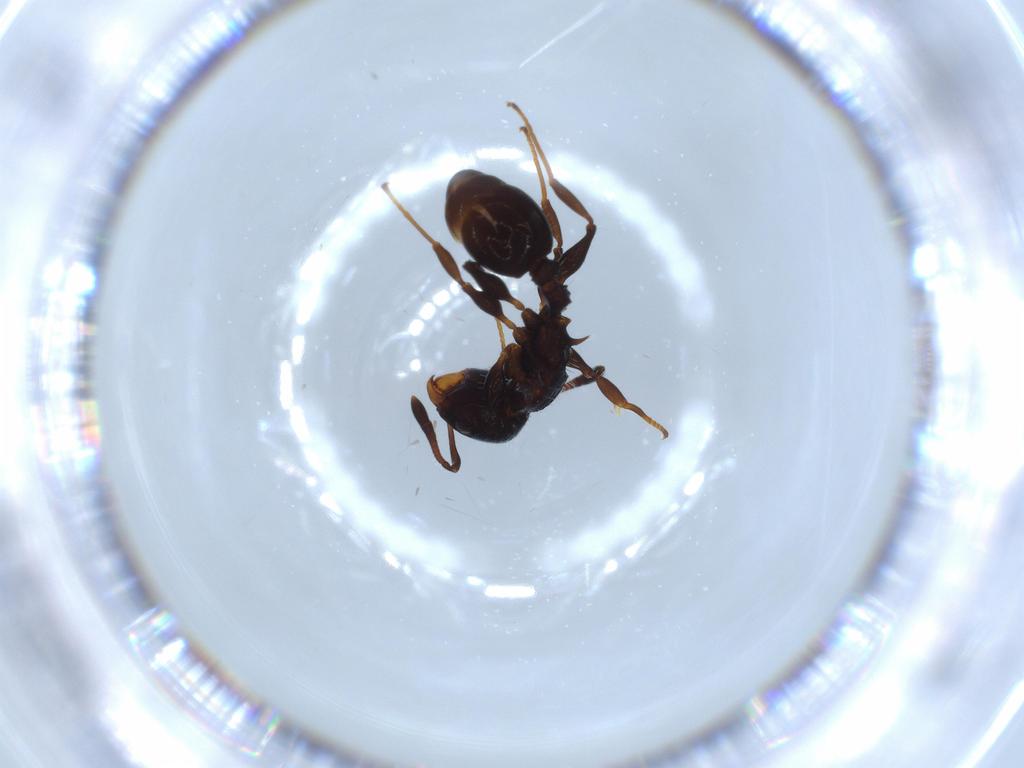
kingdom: Animalia
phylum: Arthropoda
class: Insecta
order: Hymenoptera
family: Formicidae
